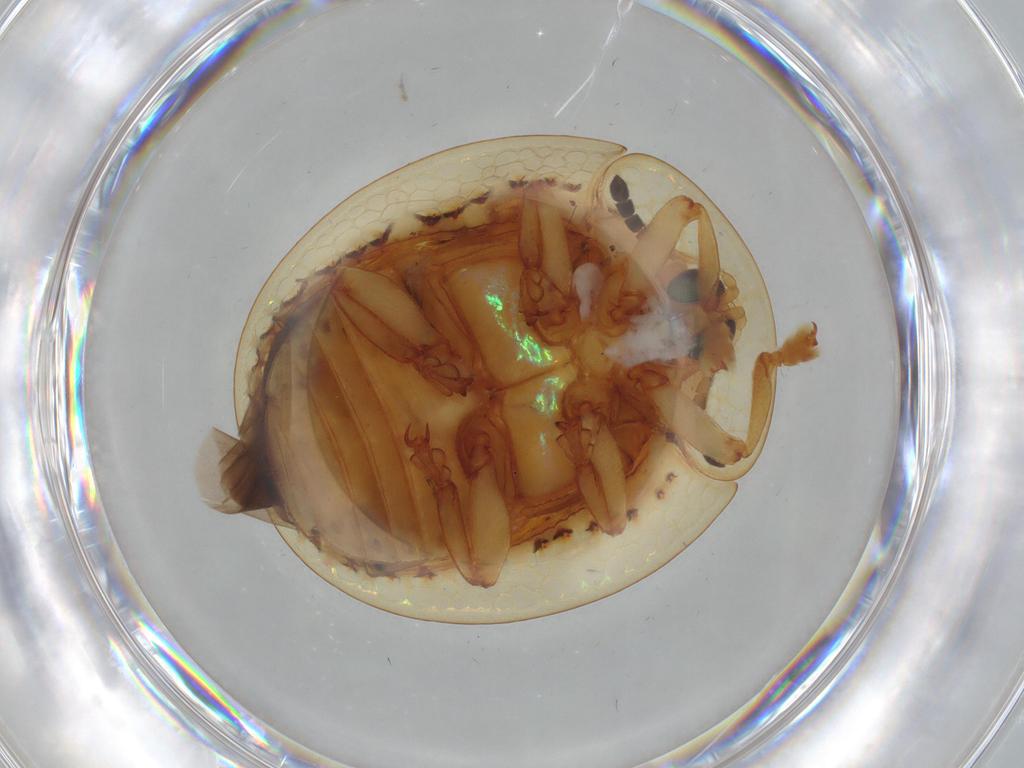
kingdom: Animalia
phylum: Arthropoda
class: Insecta
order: Coleoptera
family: Chrysomelidae
